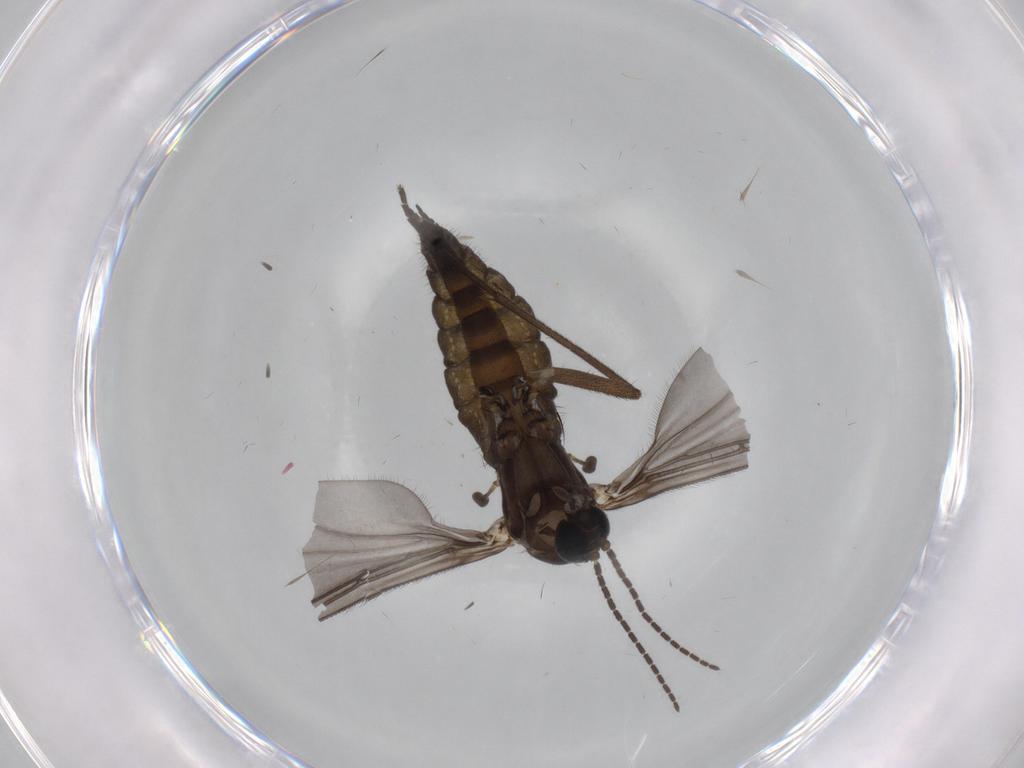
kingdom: Animalia
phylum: Arthropoda
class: Insecta
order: Diptera
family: Sciaridae
